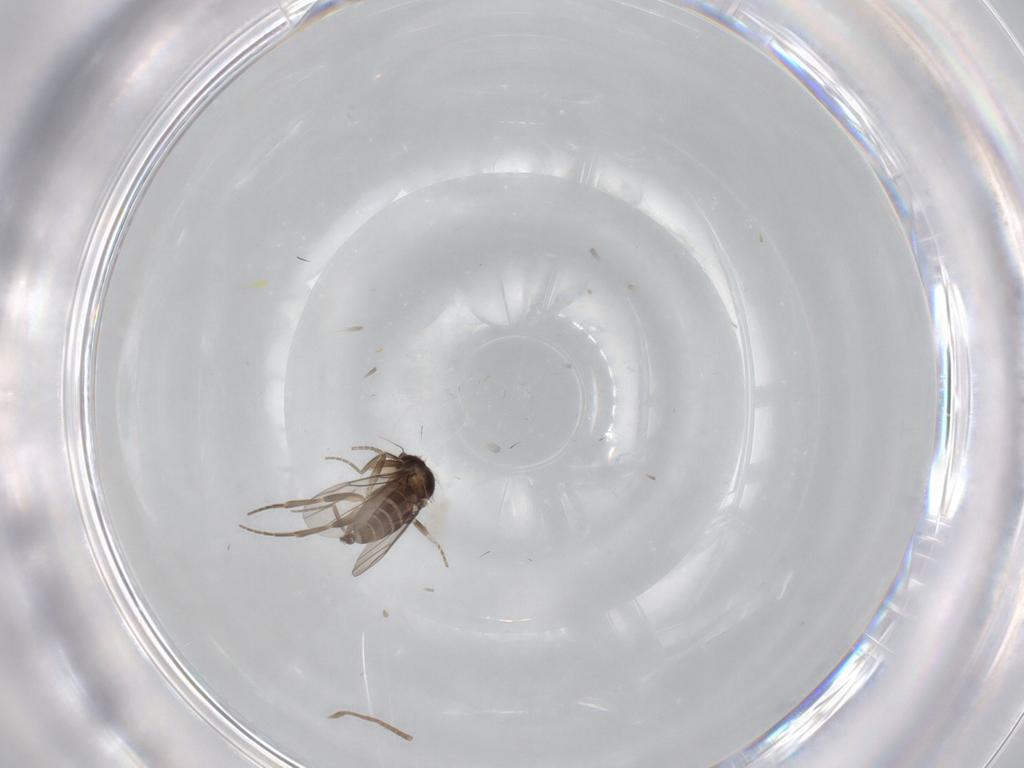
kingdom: Animalia
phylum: Arthropoda
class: Insecta
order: Diptera
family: Phoridae
